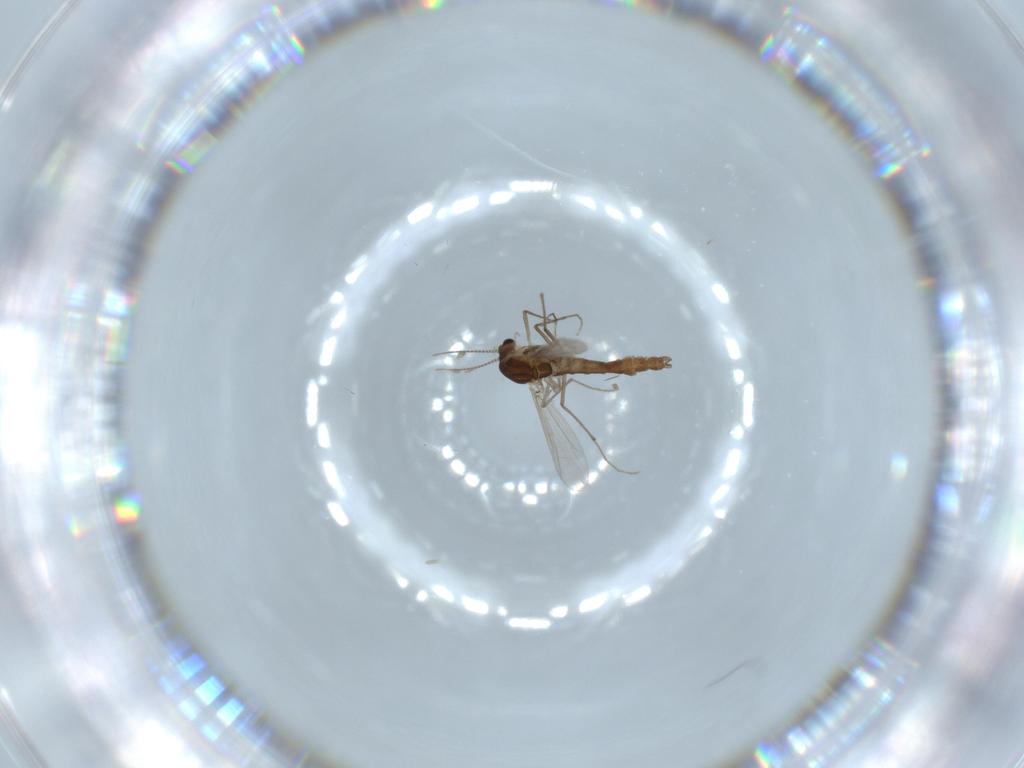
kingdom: Animalia
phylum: Arthropoda
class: Insecta
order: Diptera
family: Chironomidae
